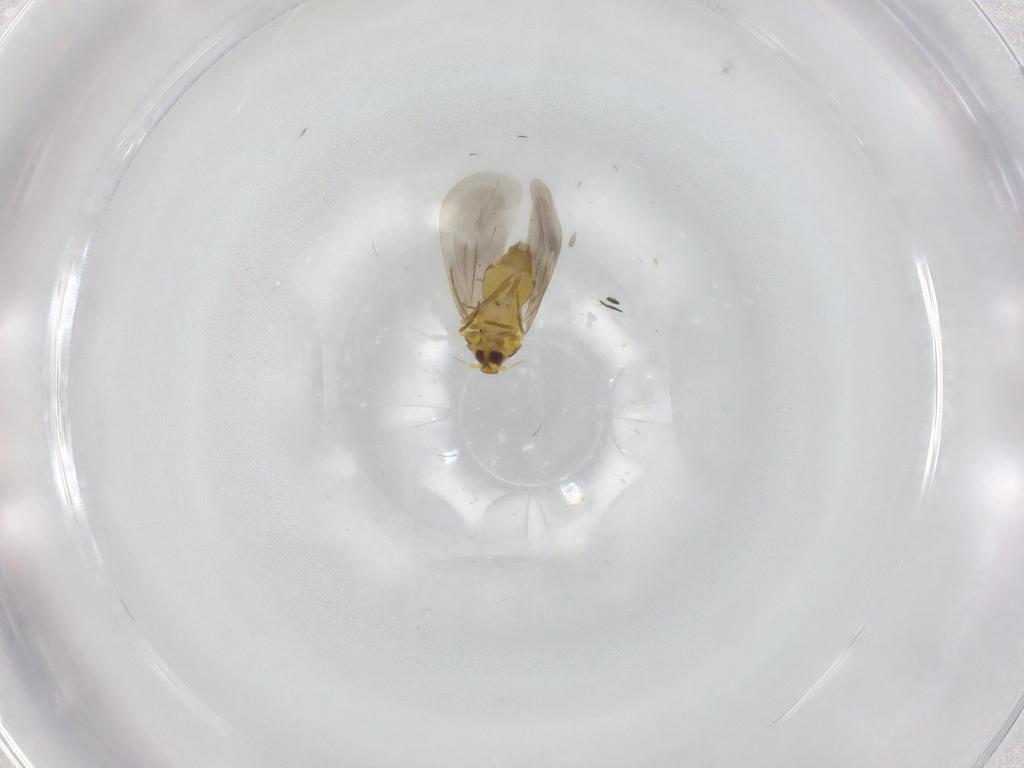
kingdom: Animalia
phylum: Arthropoda
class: Insecta
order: Hemiptera
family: Aleyrodidae
